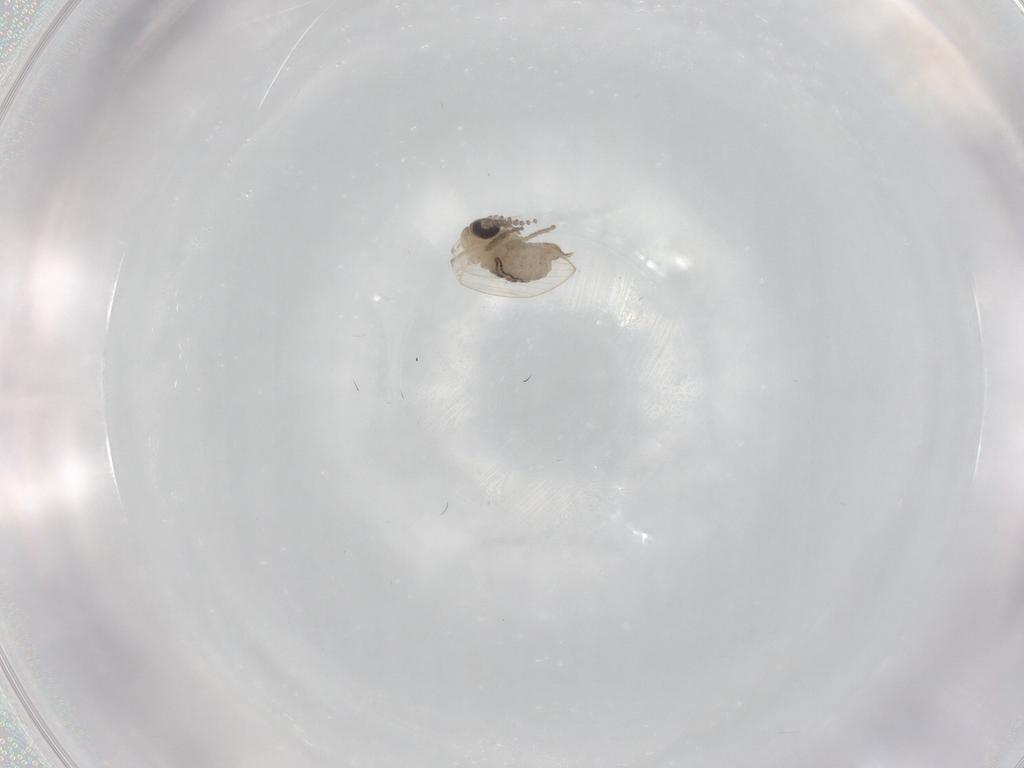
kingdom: Animalia
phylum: Arthropoda
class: Insecta
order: Diptera
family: Psychodidae
